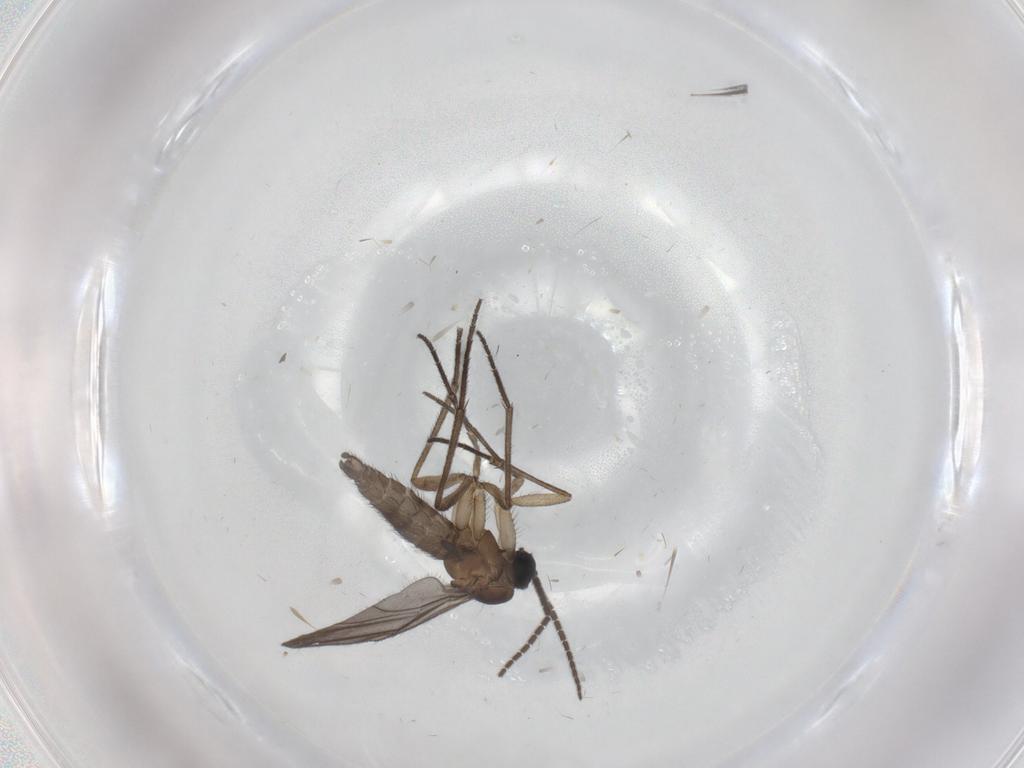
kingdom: Animalia
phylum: Arthropoda
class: Insecta
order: Diptera
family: Sciaridae
